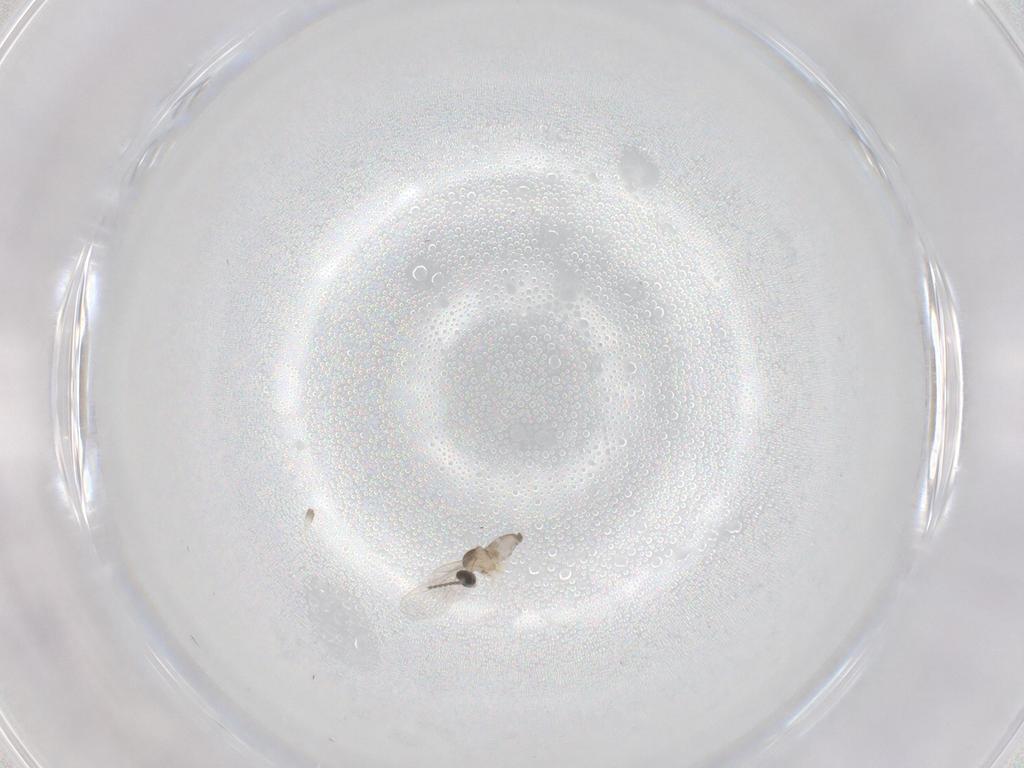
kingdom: Animalia
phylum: Arthropoda
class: Insecta
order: Diptera
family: Cecidomyiidae
